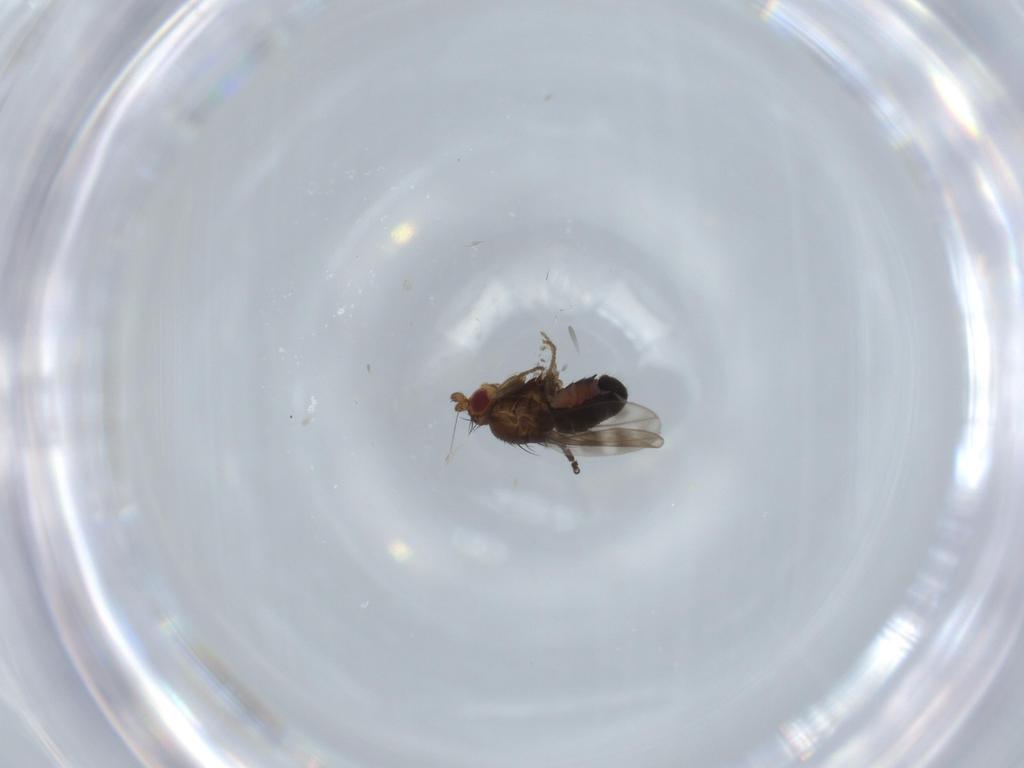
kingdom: Animalia
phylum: Arthropoda
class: Insecta
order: Diptera
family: Sphaeroceridae
